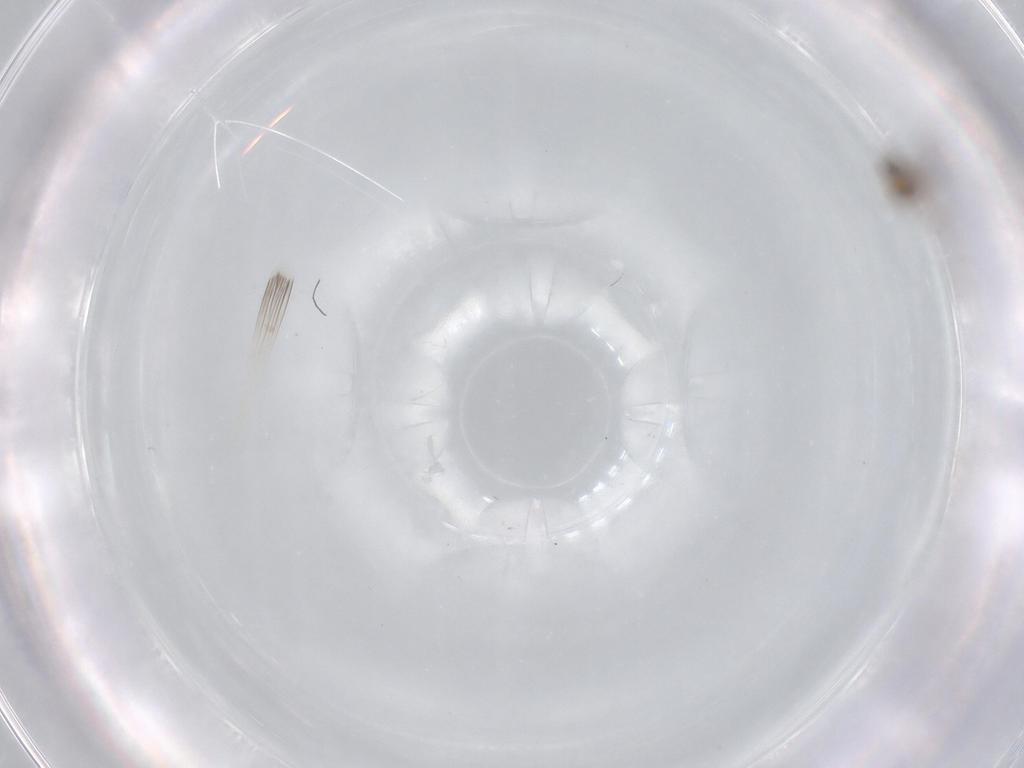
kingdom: Animalia
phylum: Arthropoda
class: Insecta
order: Diptera
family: Cecidomyiidae
